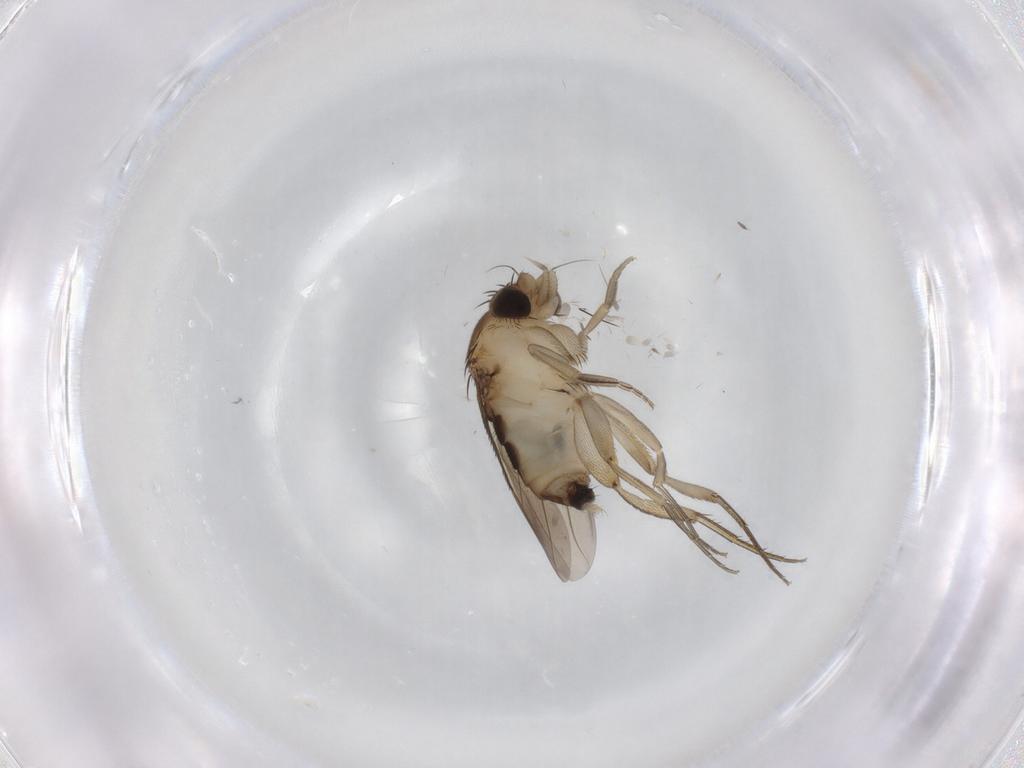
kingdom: Animalia
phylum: Arthropoda
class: Insecta
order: Diptera
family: Phoridae
